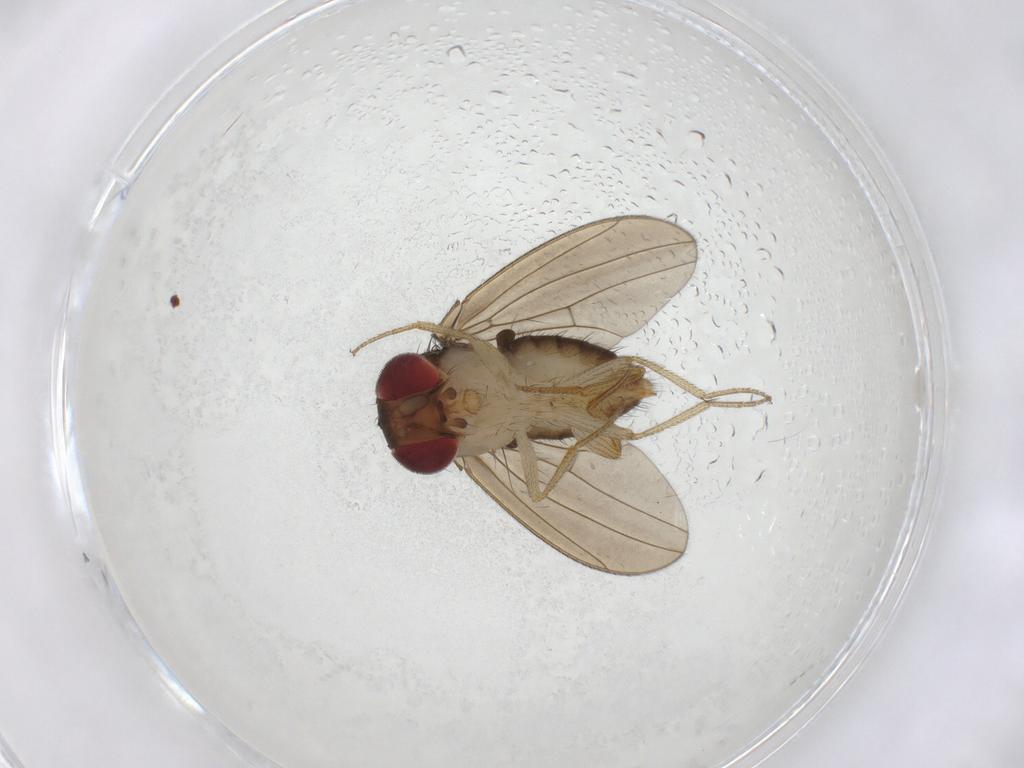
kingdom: Animalia
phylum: Arthropoda
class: Insecta
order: Diptera
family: Drosophilidae
